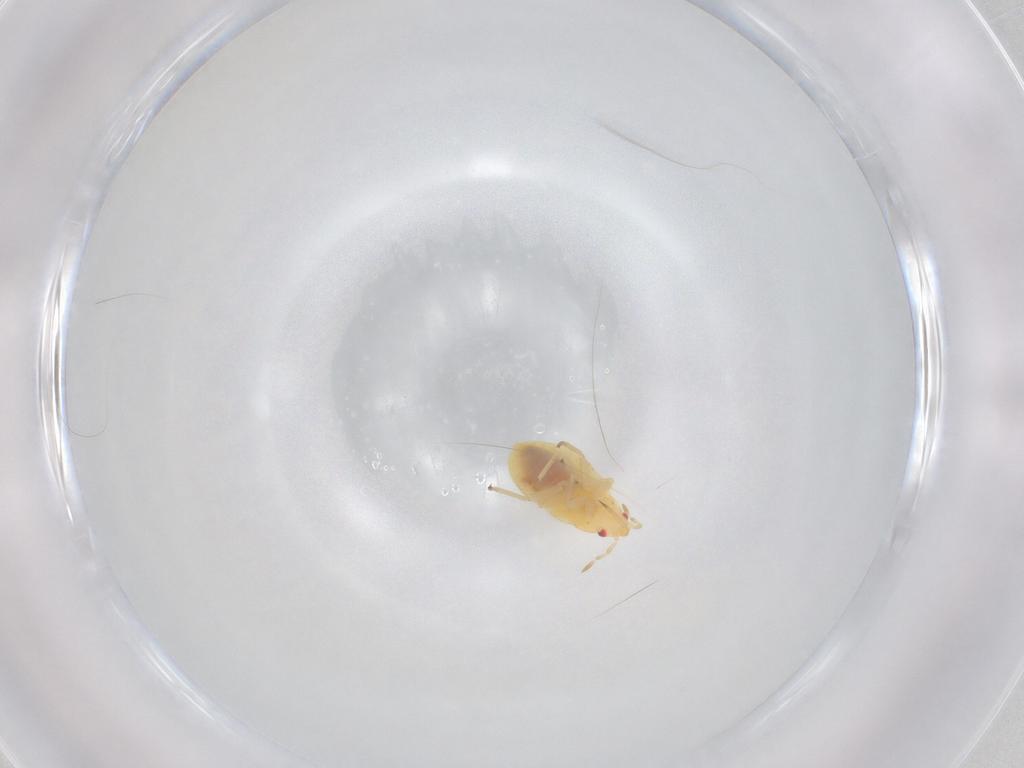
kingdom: Animalia
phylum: Arthropoda
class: Insecta
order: Hemiptera
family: Anthocoridae
